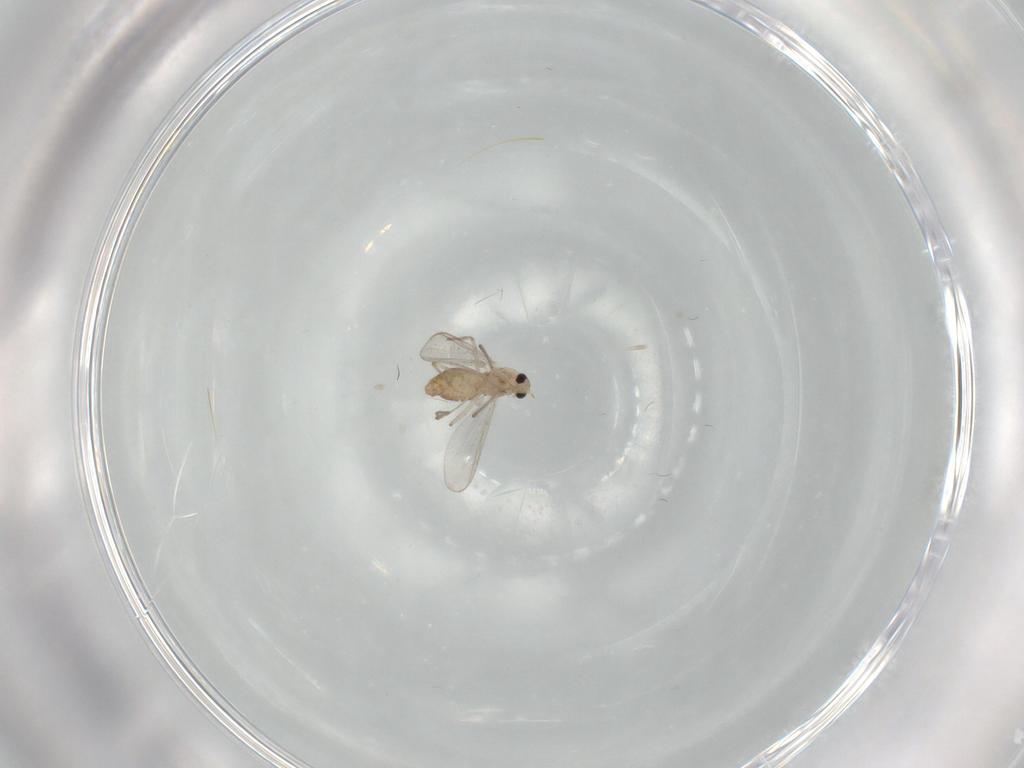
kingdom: Animalia
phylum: Arthropoda
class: Insecta
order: Diptera
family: Chironomidae
